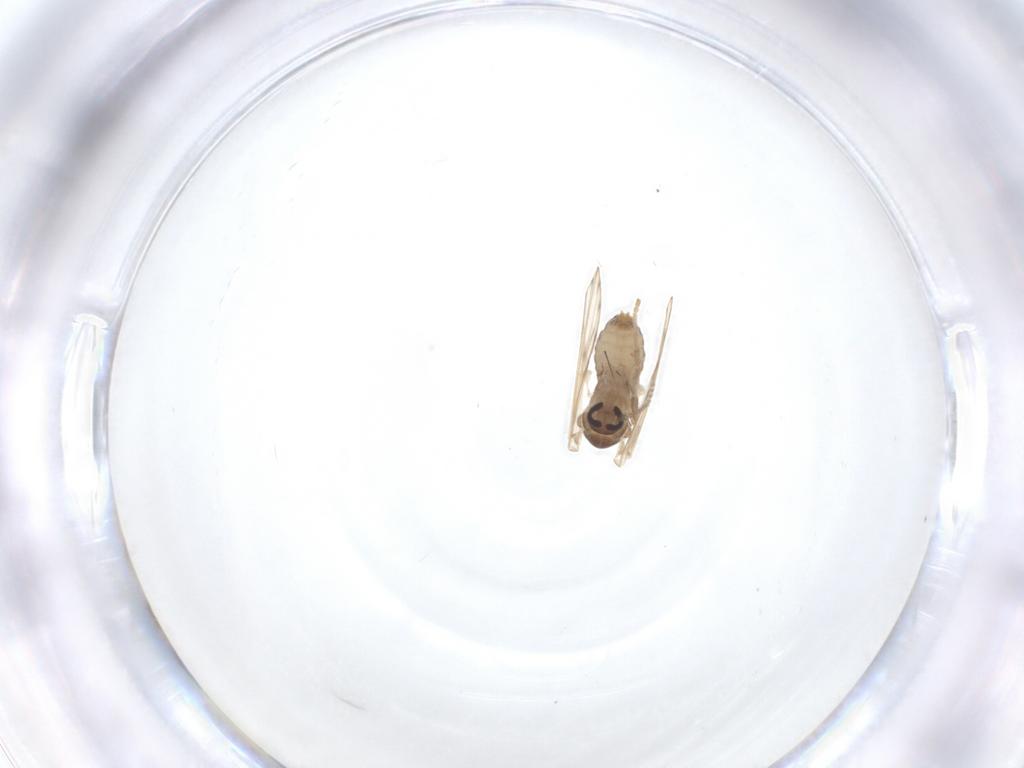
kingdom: Animalia
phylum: Arthropoda
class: Insecta
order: Diptera
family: Psychodidae
